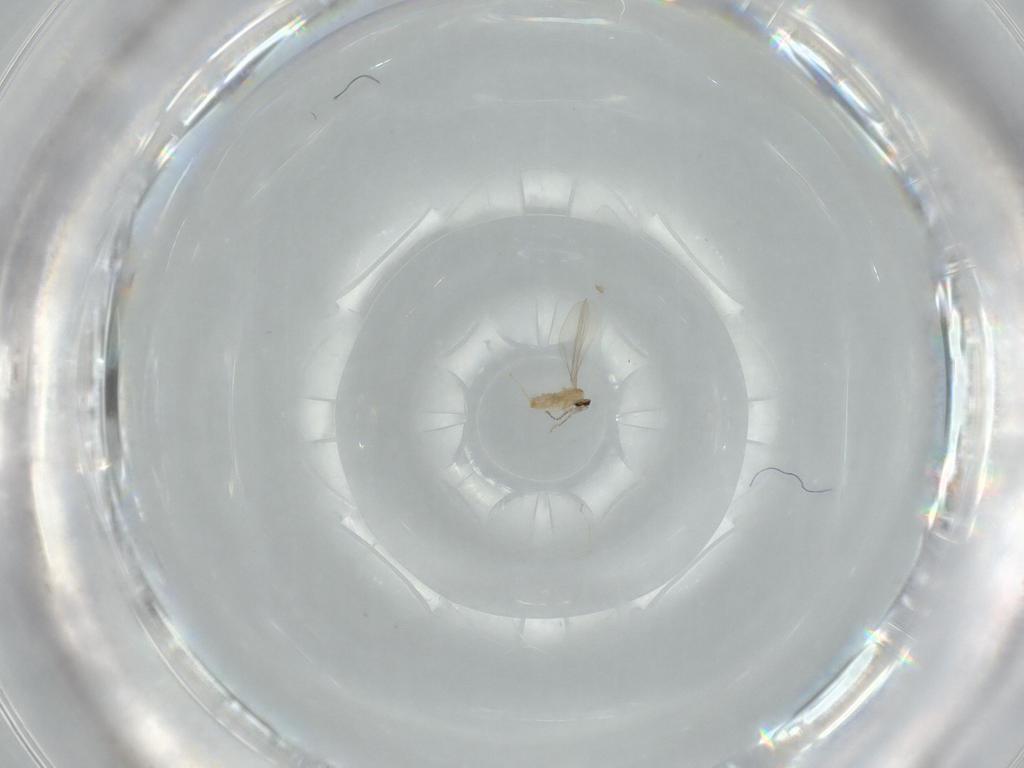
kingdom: Animalia
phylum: Arthropoda
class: Insecta
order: Diptera
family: Cecidomyiidae
